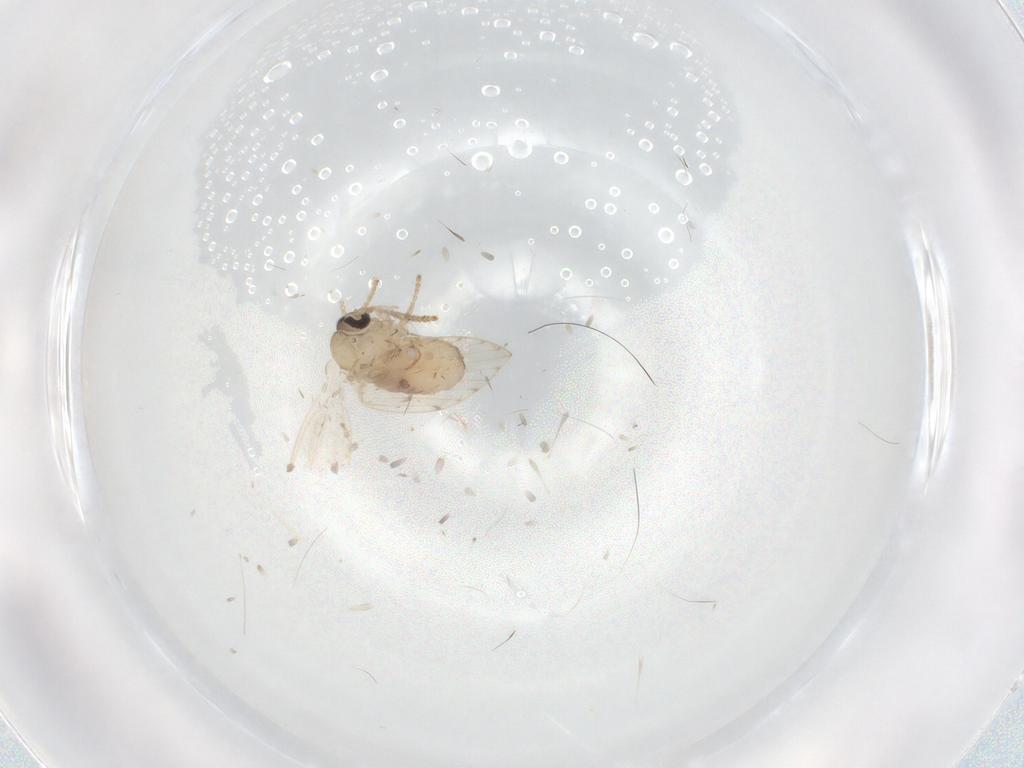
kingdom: Animalia
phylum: Arthropoda
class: Insecta
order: Diptera
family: Psychodidae
